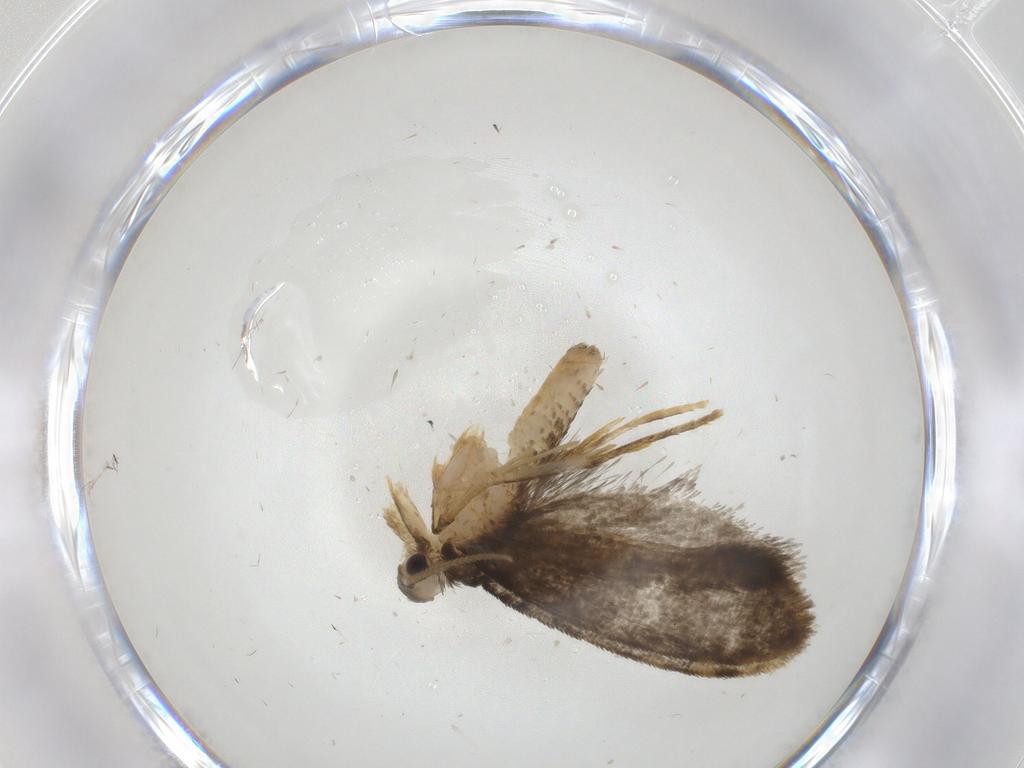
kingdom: Animalia
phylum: Arthropoda
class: Insecta
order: Lepidoptera
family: Psychidae
